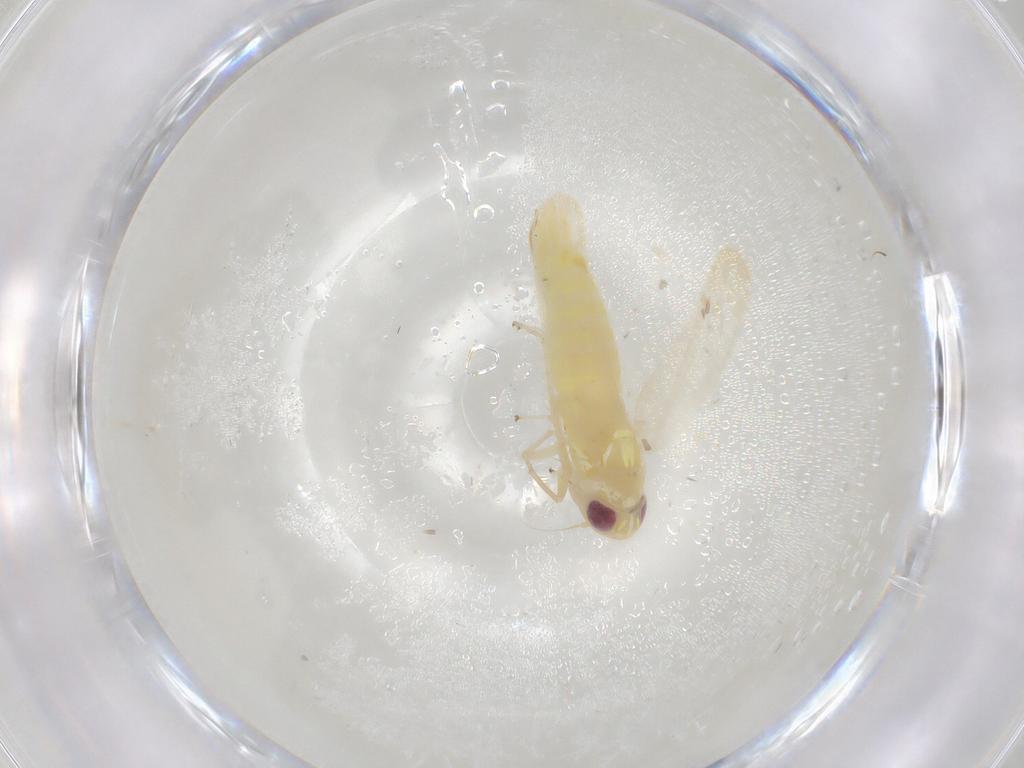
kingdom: Animalia
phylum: Arthropoda
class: Insecta
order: Hemiptera
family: Cicadellidae
